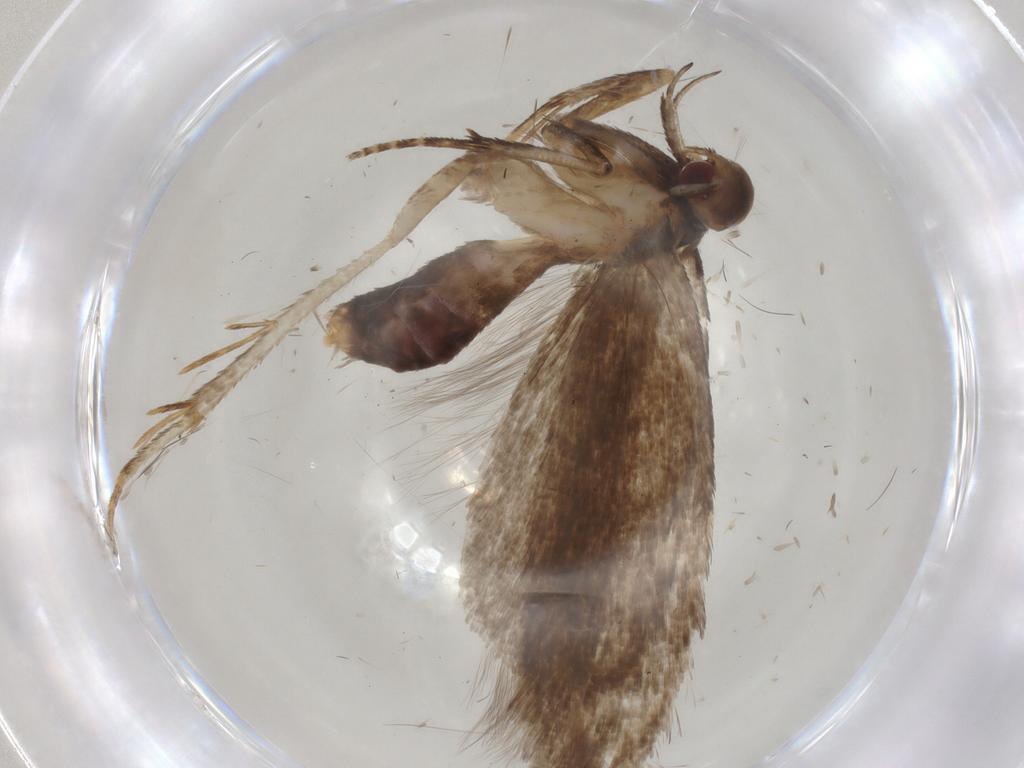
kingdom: Animalia
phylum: Arthropoda
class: Insecta
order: Lepidoptera
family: Gelechiidae
